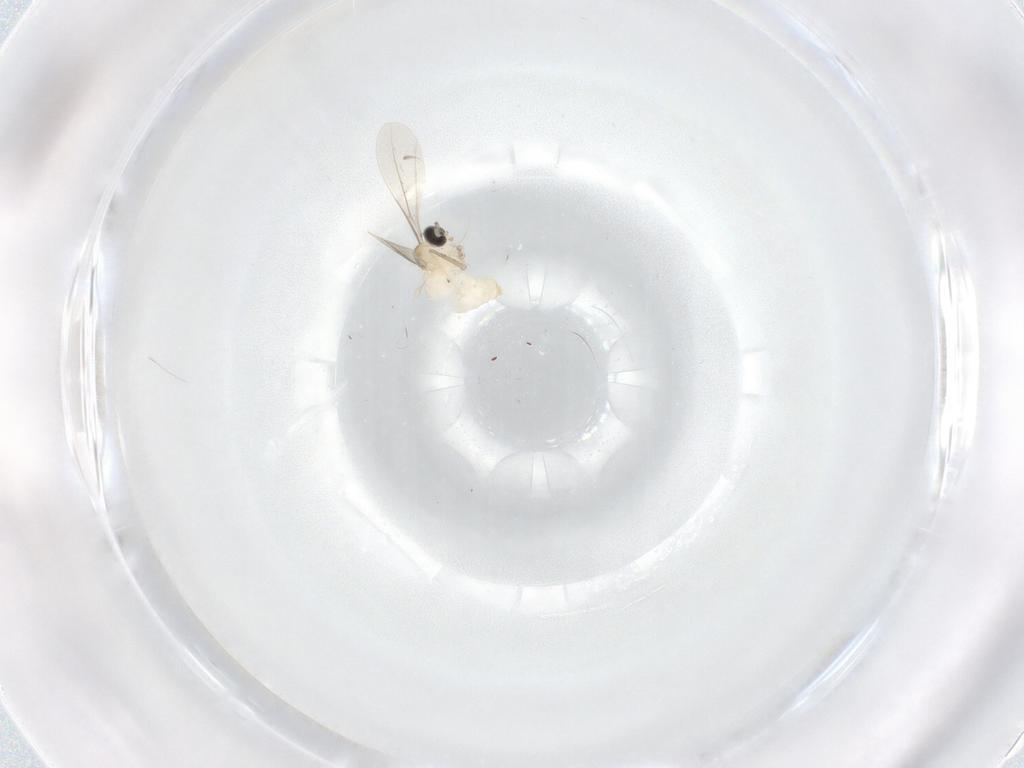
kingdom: Animalia
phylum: Arthropoda
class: Insecta
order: Diptera
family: Cecidomyiidae
